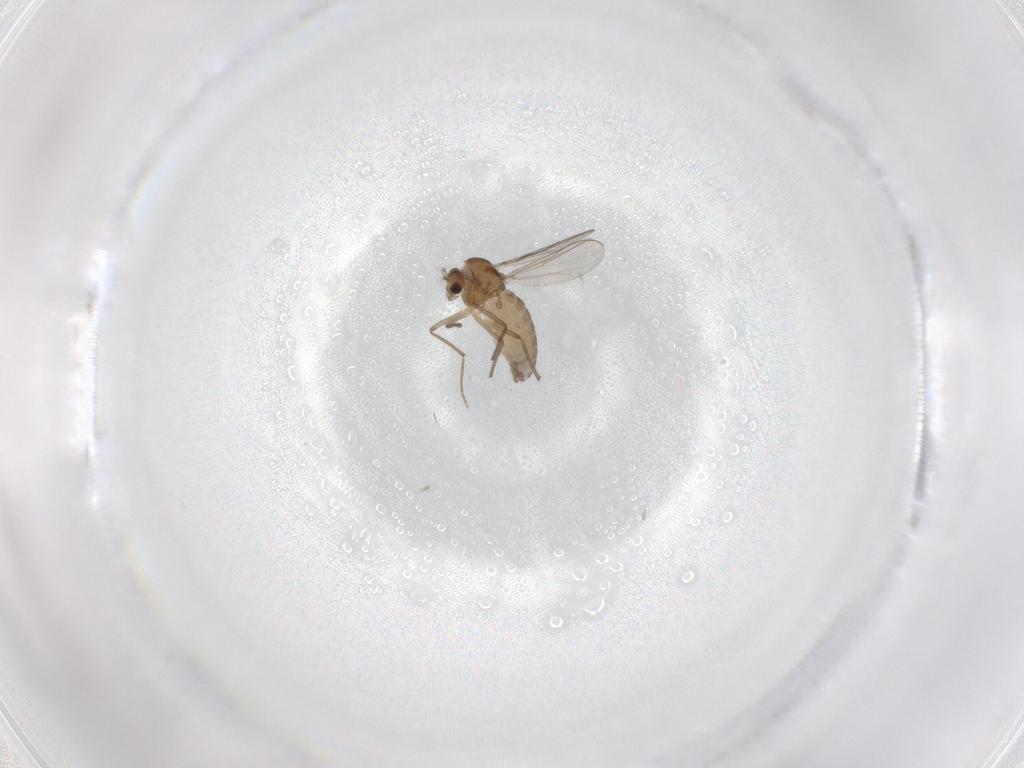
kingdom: Animalia
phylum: Arthropoda
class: Insecta
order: Diptera
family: Chironomidae
